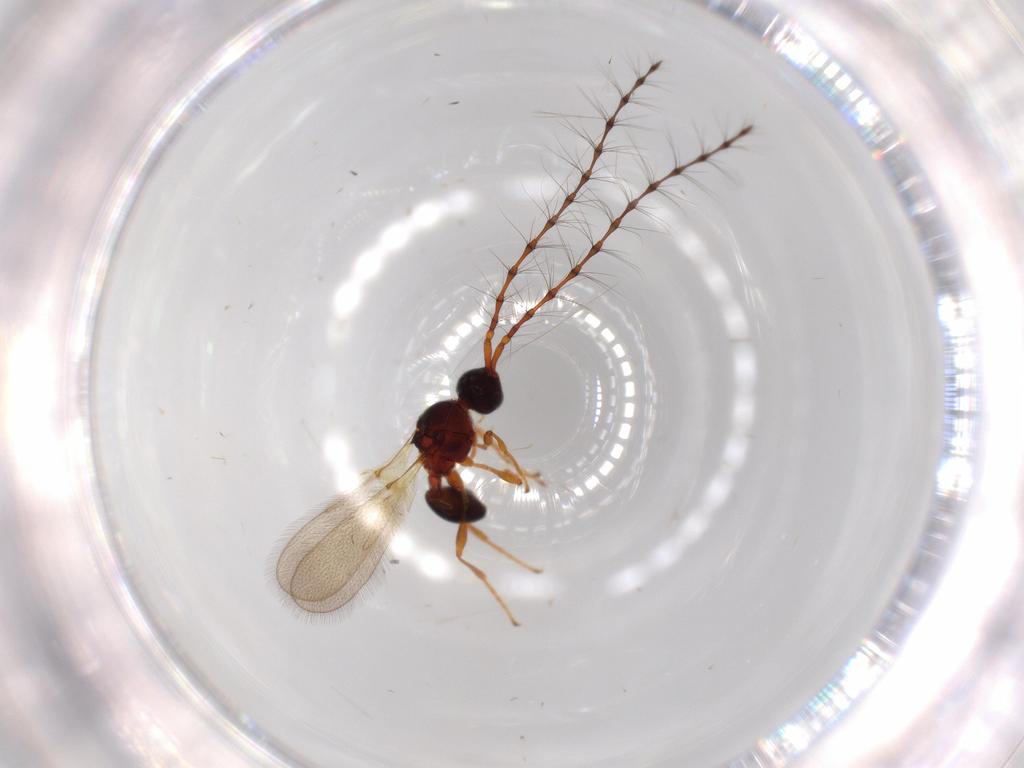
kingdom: Animalia
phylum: Arthropoda
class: Insecta
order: Hymenoptera
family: Diapriidae
